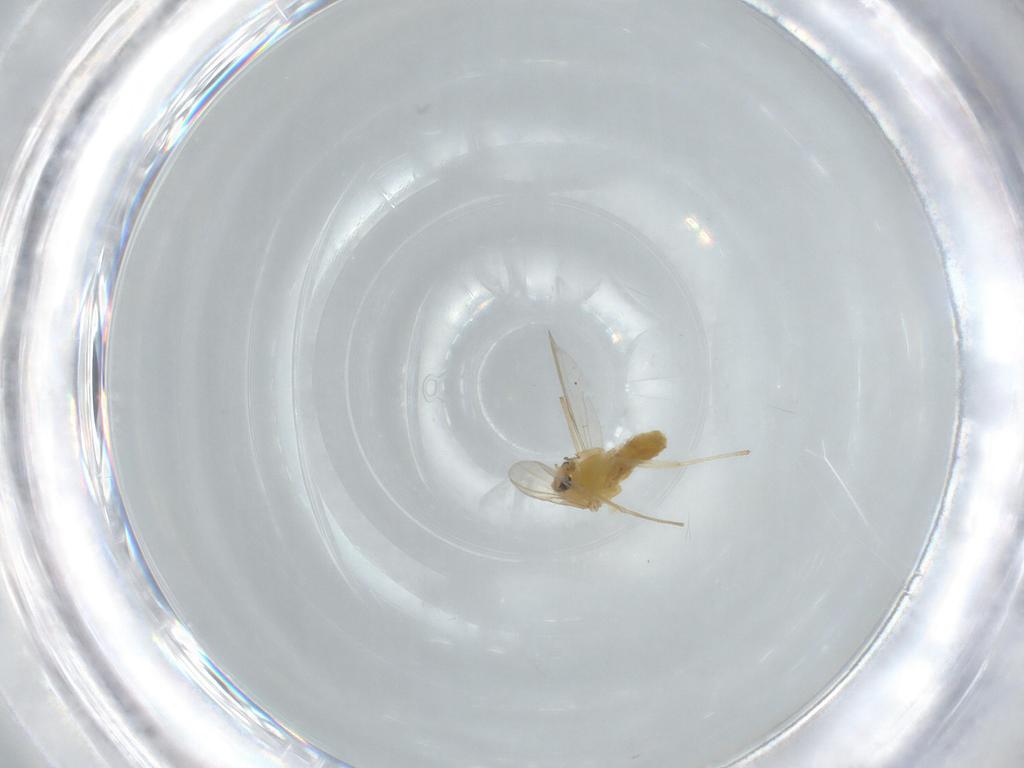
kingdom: Animalia
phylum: Arthropoda
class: Insecta
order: Diptera
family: Chironomidae
